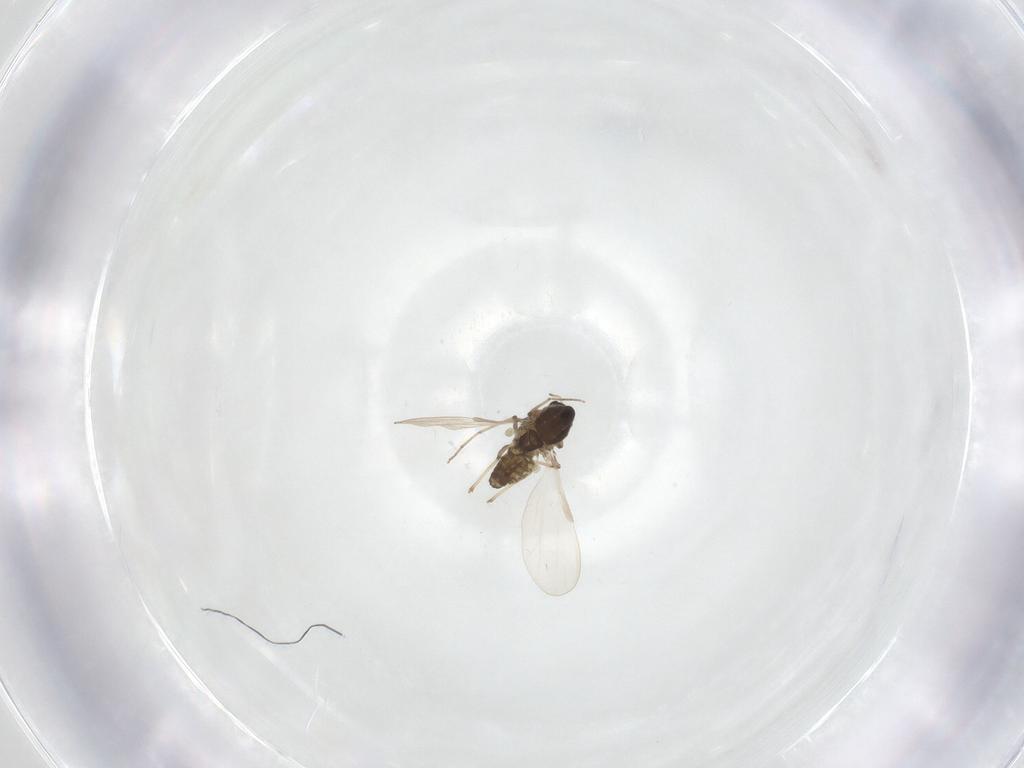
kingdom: Animalia
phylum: Arthropoda
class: Insecta
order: Diptera
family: Chironomidae
